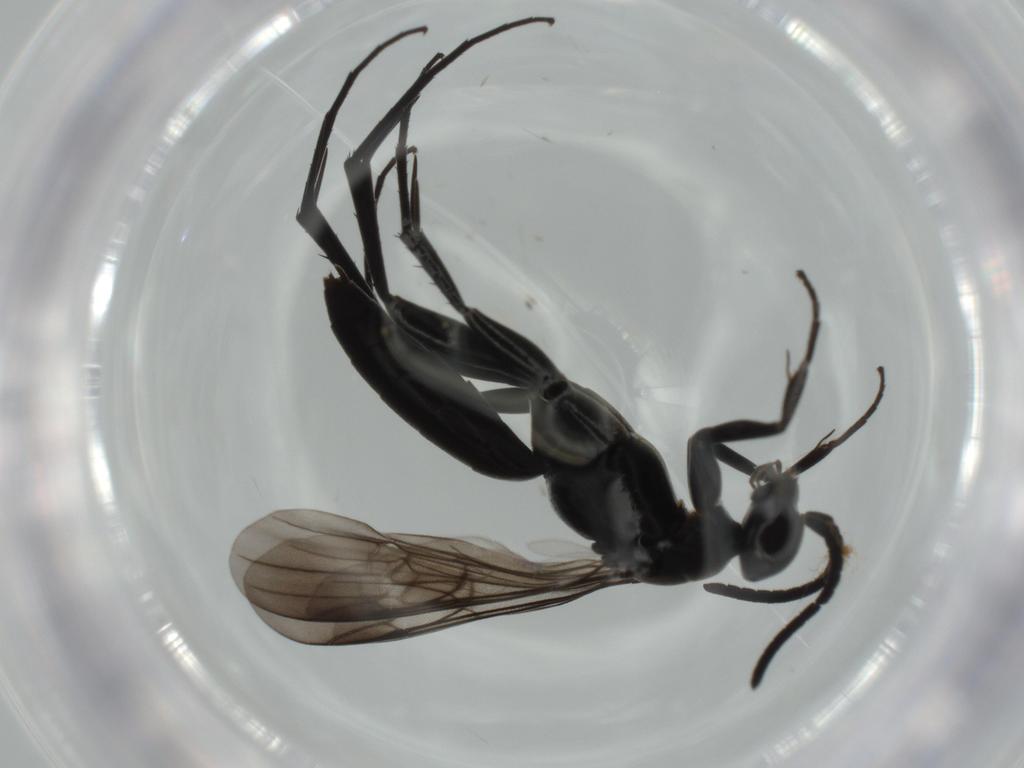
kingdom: Animalia
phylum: Arthropoda
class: Insecta
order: Hymenoptera
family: Pompilidae
